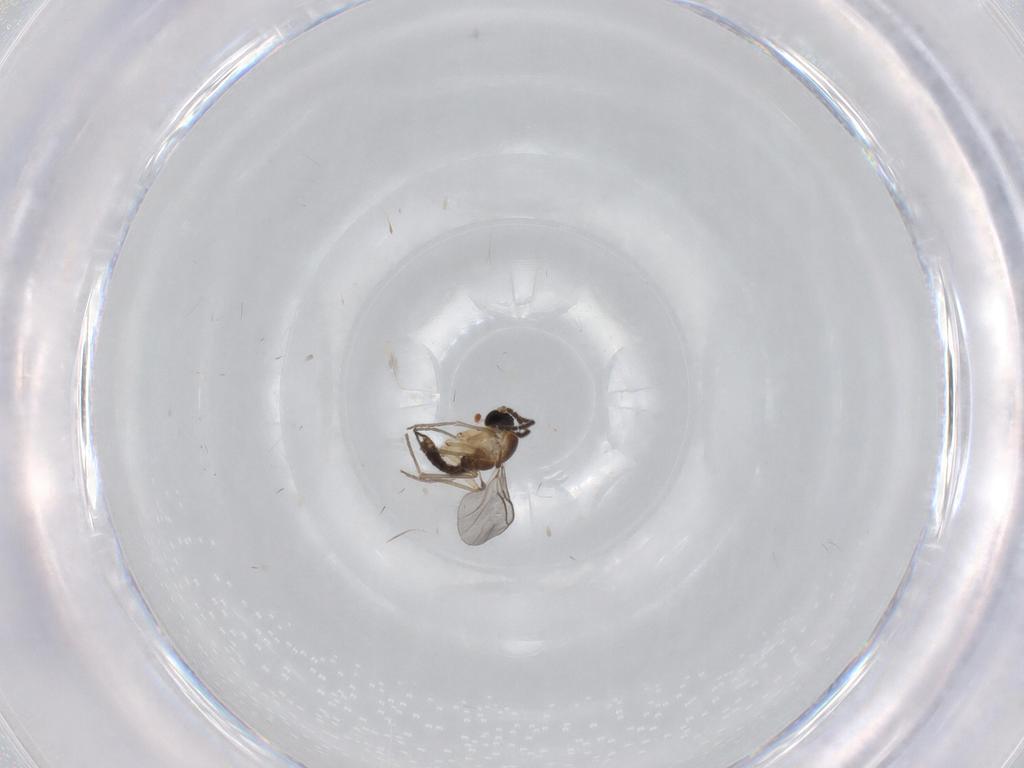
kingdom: Animalia
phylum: Arthropoda
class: Insecta
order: Diptera
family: Sciaridae
